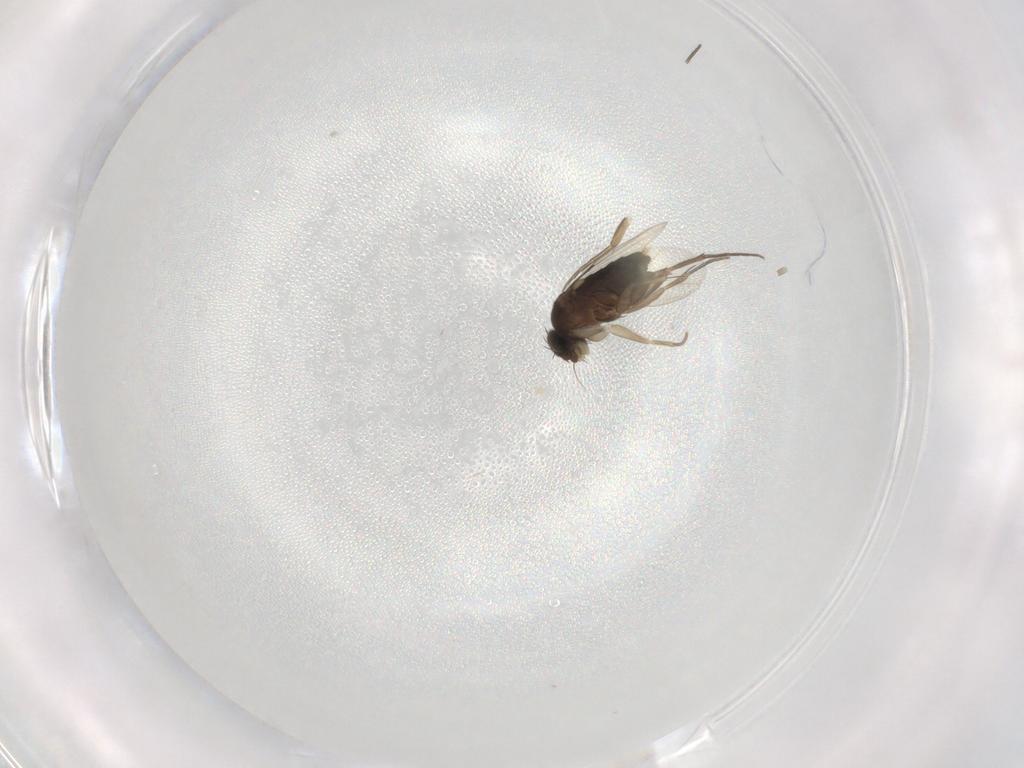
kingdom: Animalia
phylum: Arthropoda
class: Insecta
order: Diptera
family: Phoridae
